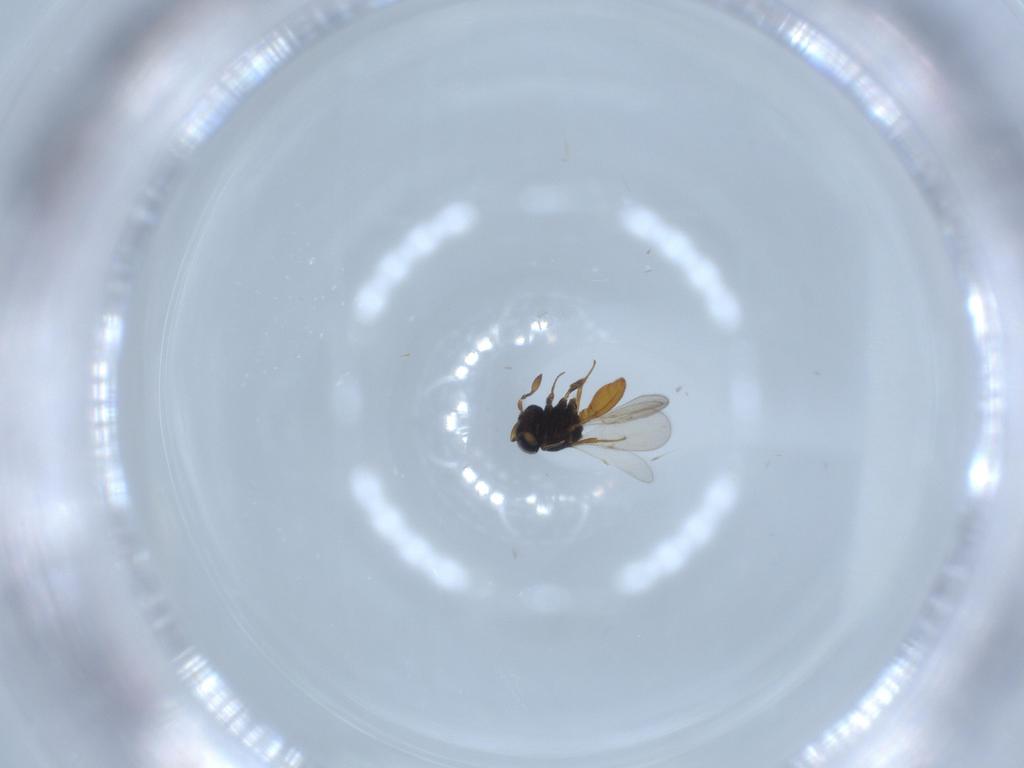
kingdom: Animalia
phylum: Arthropoda
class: Insecta
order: Hymenoptera
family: Scelionidae
